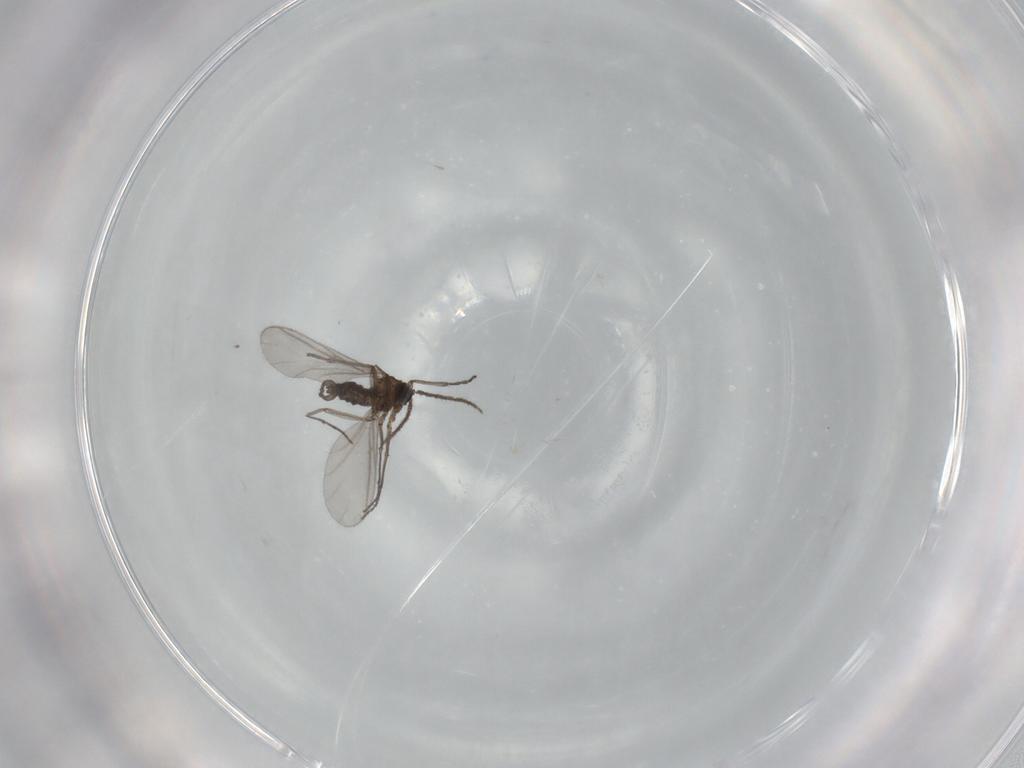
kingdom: Animalia
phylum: Arthropoda
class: Insecta
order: Diptera
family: Sciaridae
